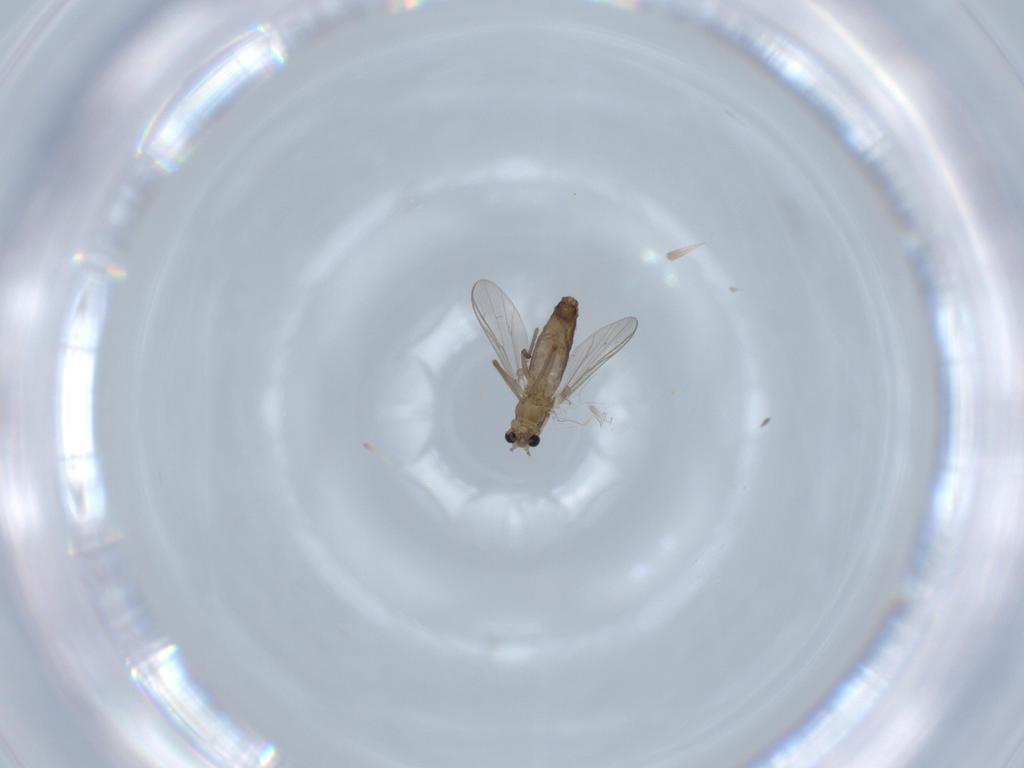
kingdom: Animalia
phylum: Arthropoda
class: Insecta
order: Diptera
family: Chironomidae
